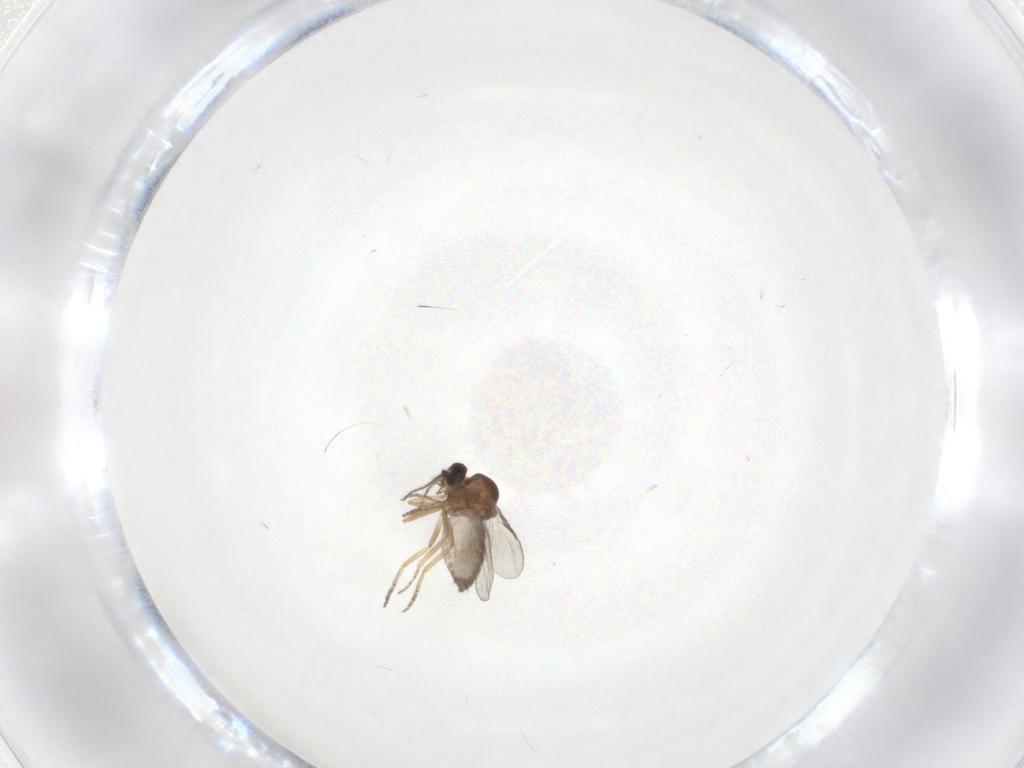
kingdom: Animalia
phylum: Arthropoda
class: Insecta
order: Diptera
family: Ceratopogonidae
